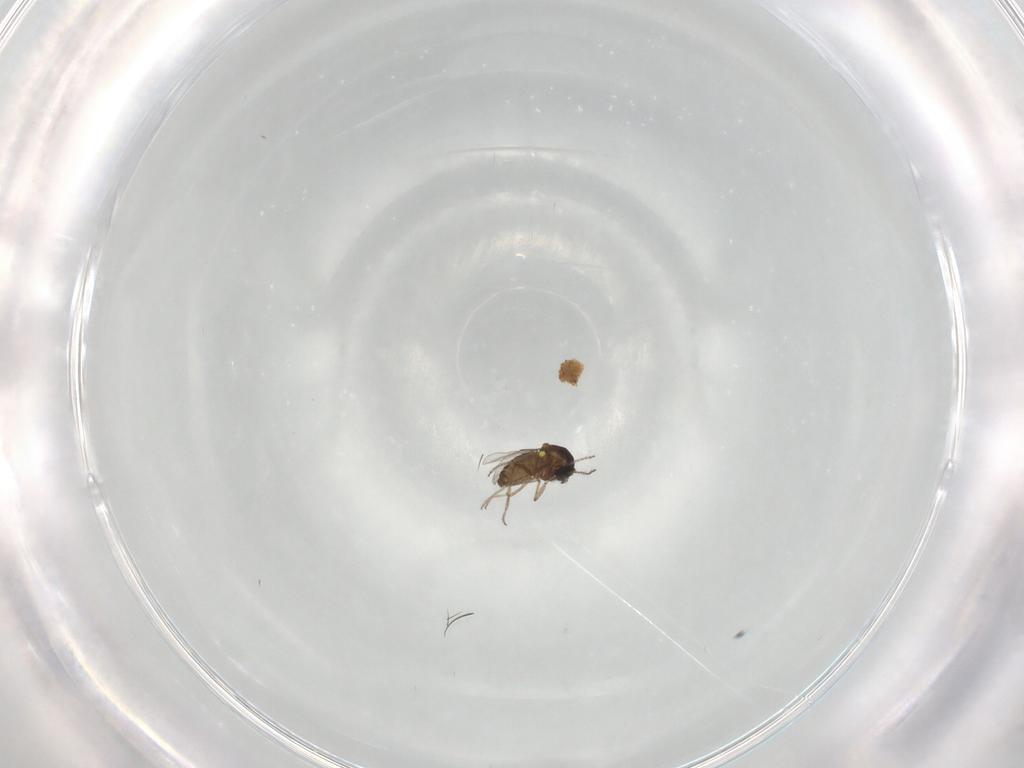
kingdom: Animalia
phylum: Arthropoda
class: Insecta
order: Diptera
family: Ceratopogonidae
